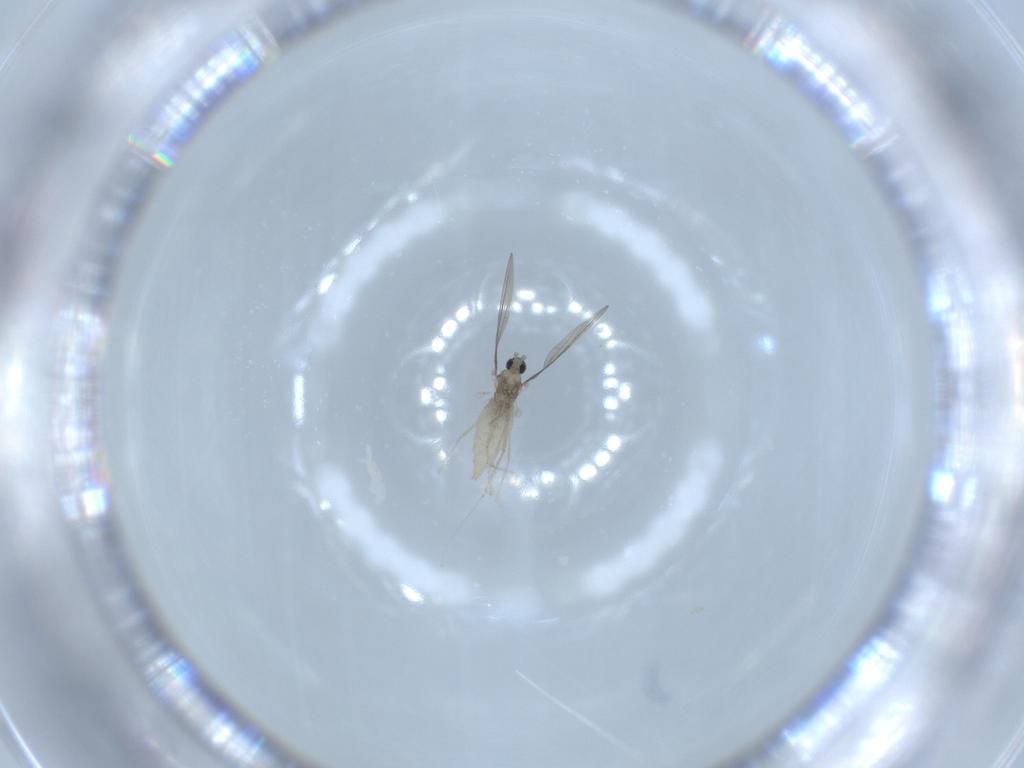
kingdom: Animalia
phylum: Arthropoda
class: Insecta
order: Diptera
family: Cecidomyiidae
